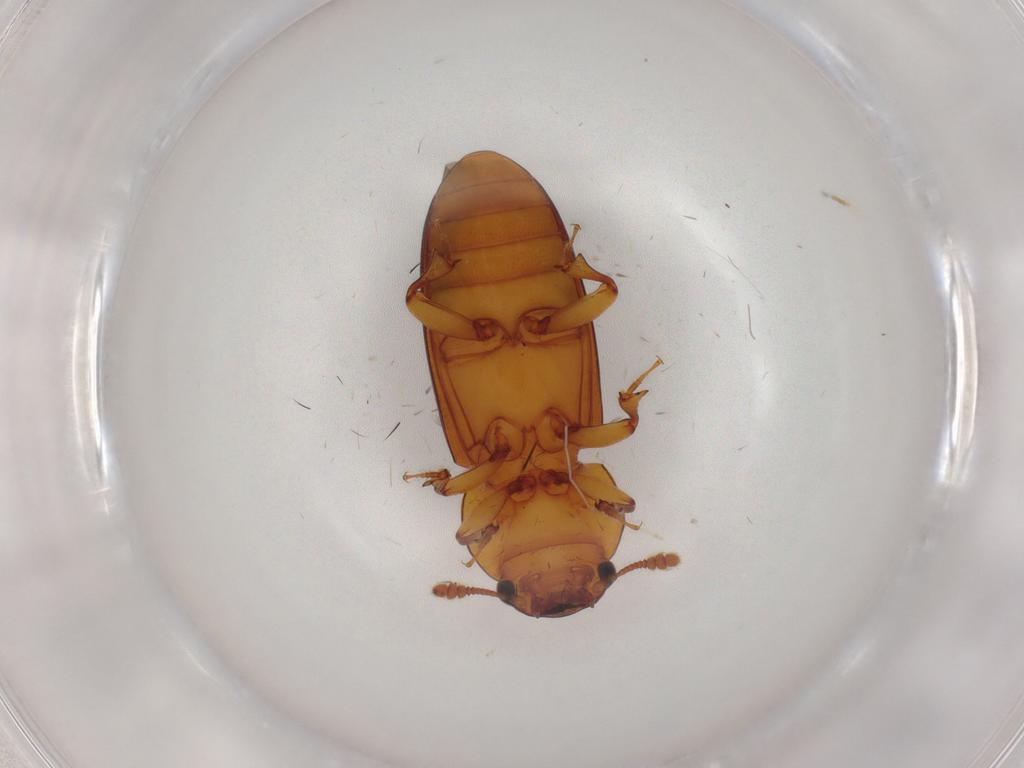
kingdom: Animalia
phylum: Arthropoda
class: Insecta
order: Coleoptera
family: Salpingidae
